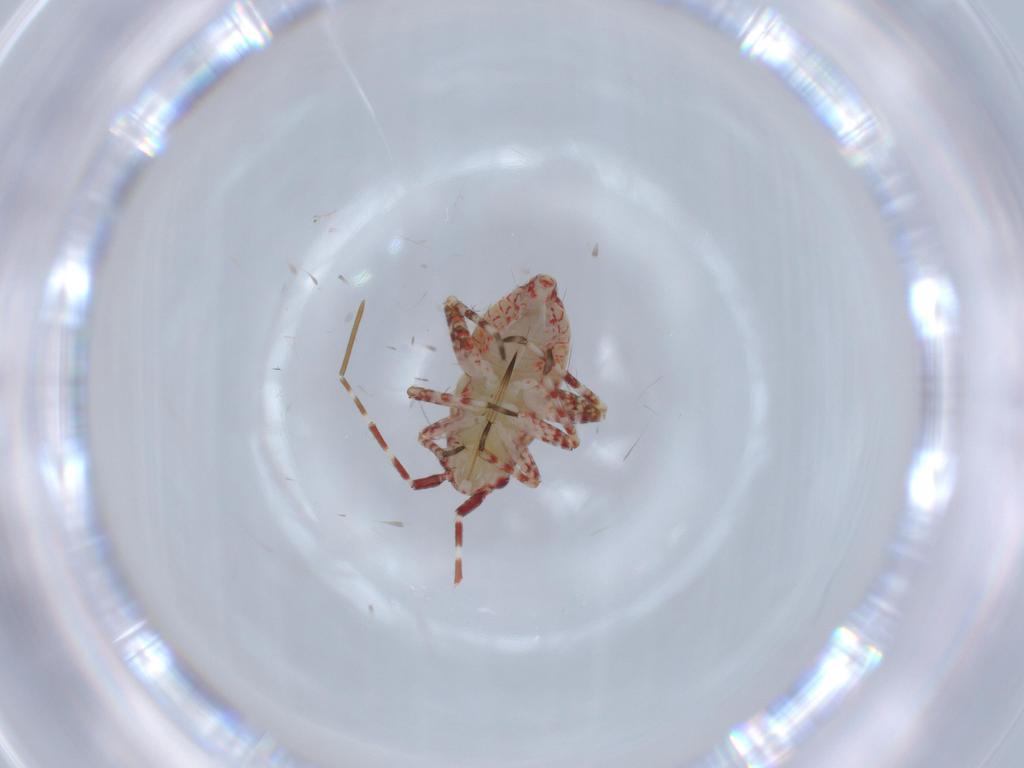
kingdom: Animalia
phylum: Arthropoda
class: Insecta
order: Hemiptera
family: Miridae
